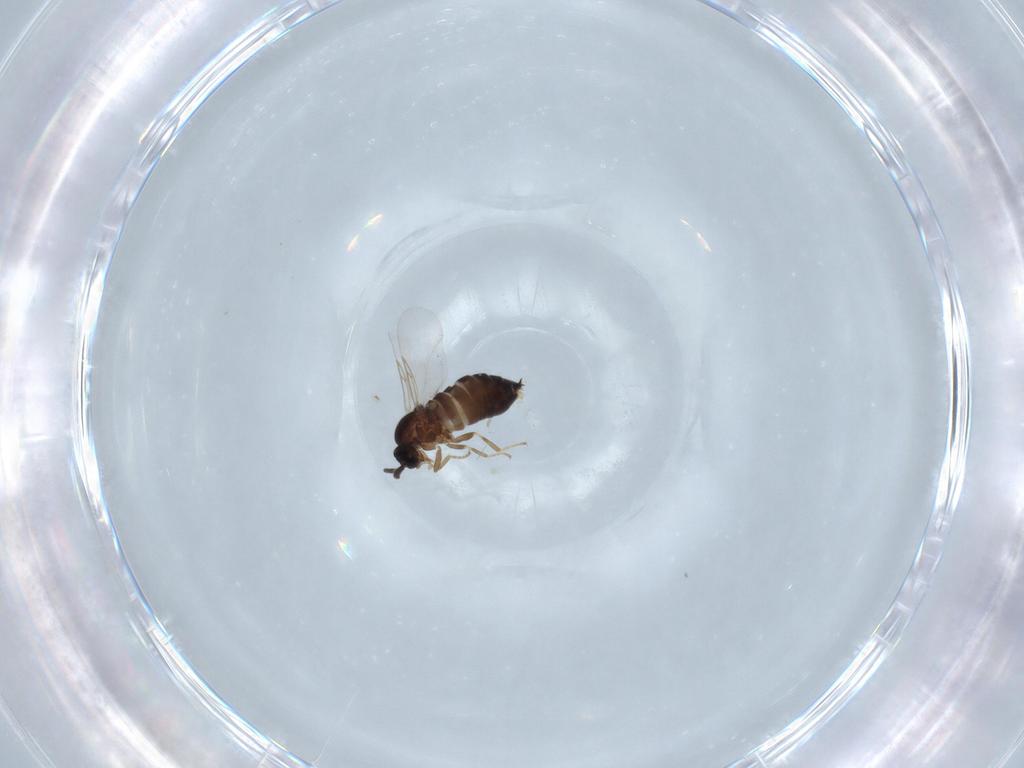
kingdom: Animalia
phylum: Arthropoda
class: Insecta
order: Diptera
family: Scatopsidae
